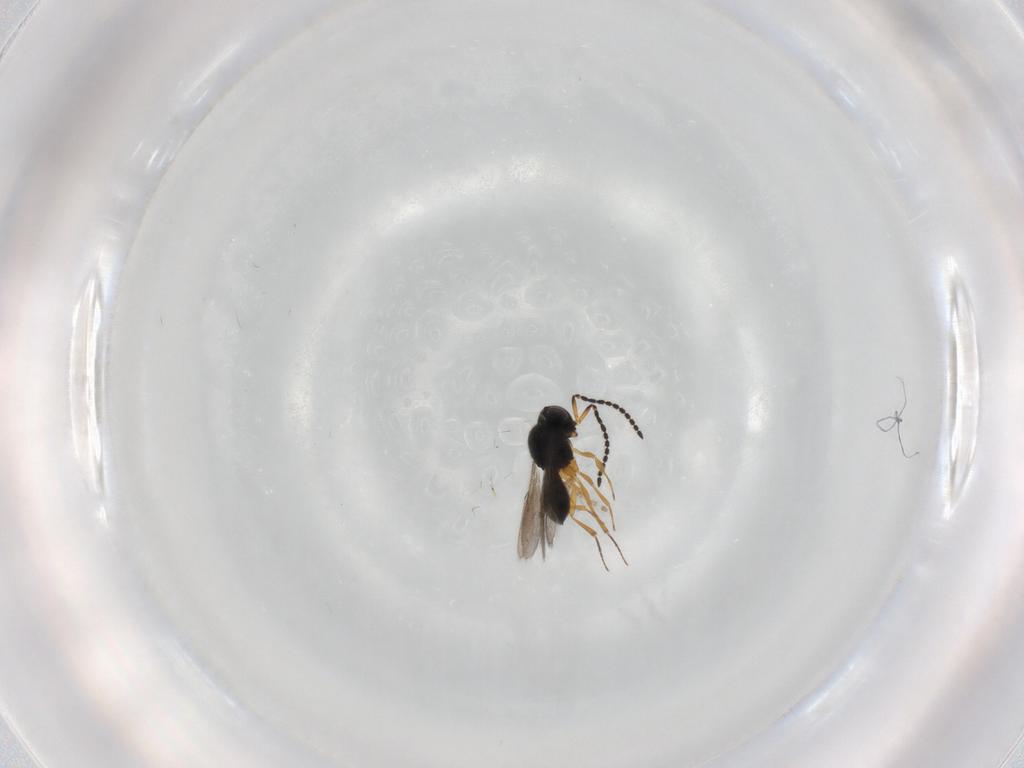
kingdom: Animalia
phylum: Arthropoda
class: Insecta
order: Hymenoptera
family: Scelionidae
